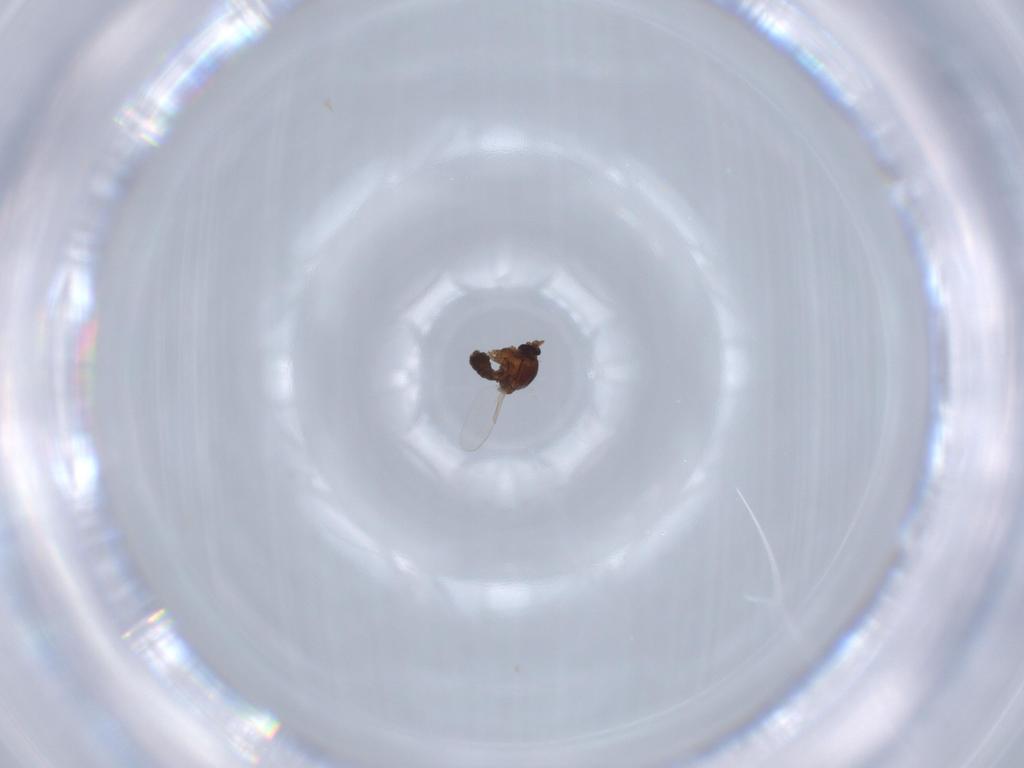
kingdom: Animalia
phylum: Arthropoda
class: Insecta
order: Diptera
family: Ceratopogonidae
